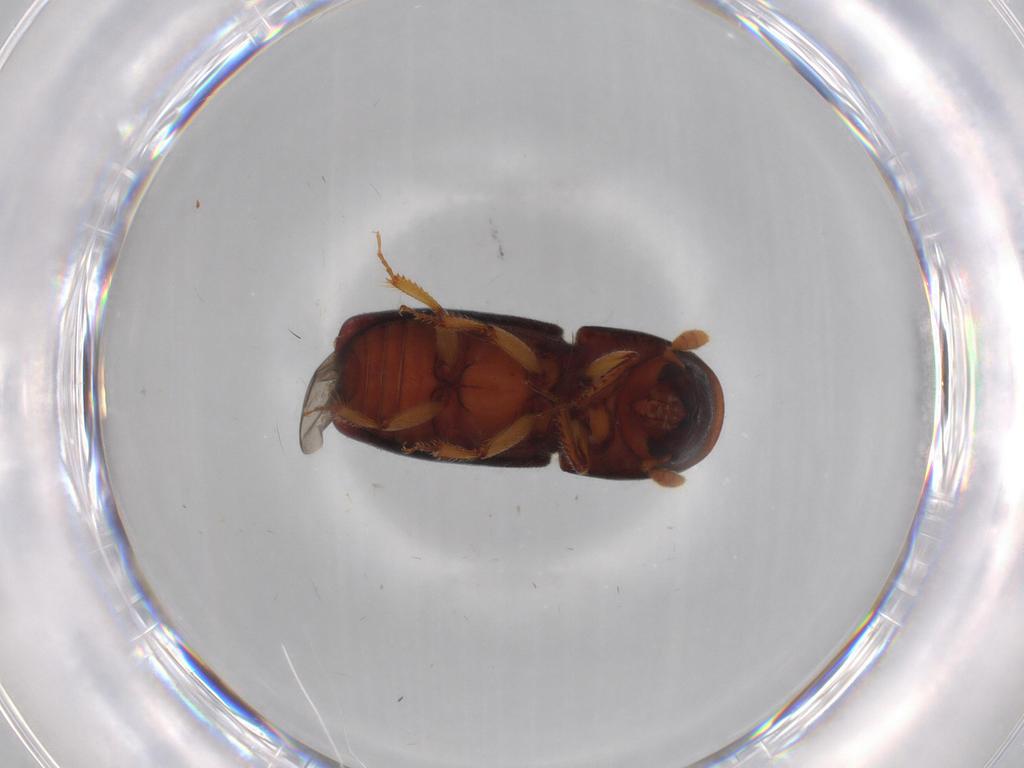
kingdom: Animalia
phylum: Arthropoda
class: Insecta
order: Coleoptera
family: Curculionidae
